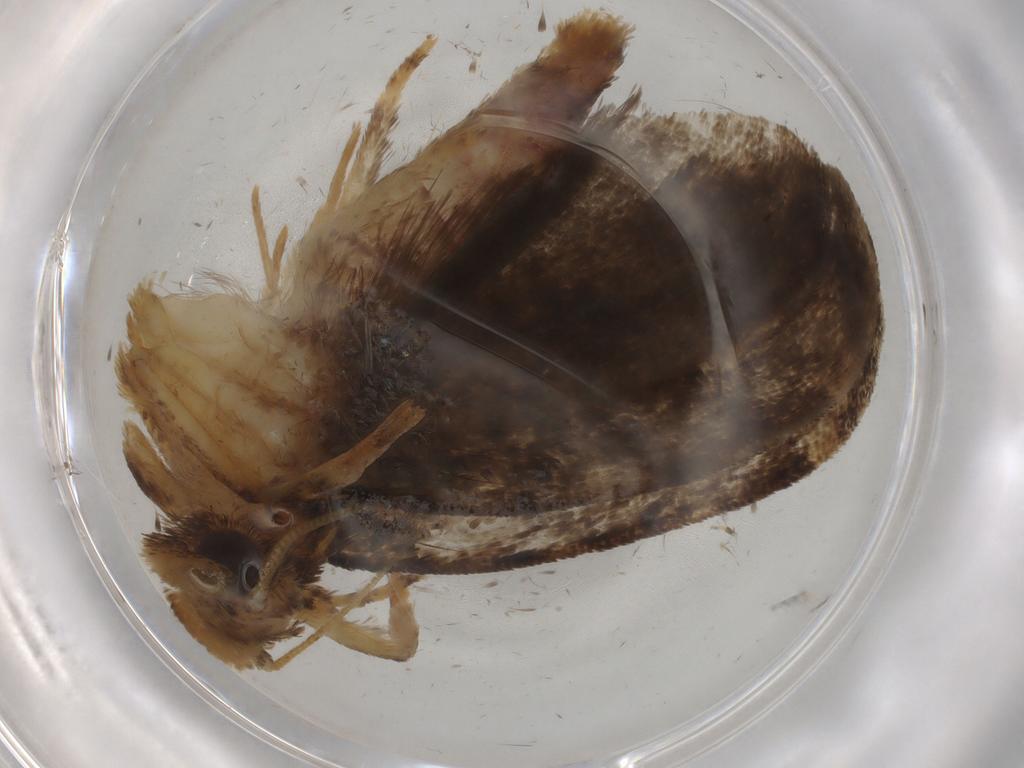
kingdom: Animalia
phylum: Arthropoda
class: Insecta
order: Lepidoptera
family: Tineidae
